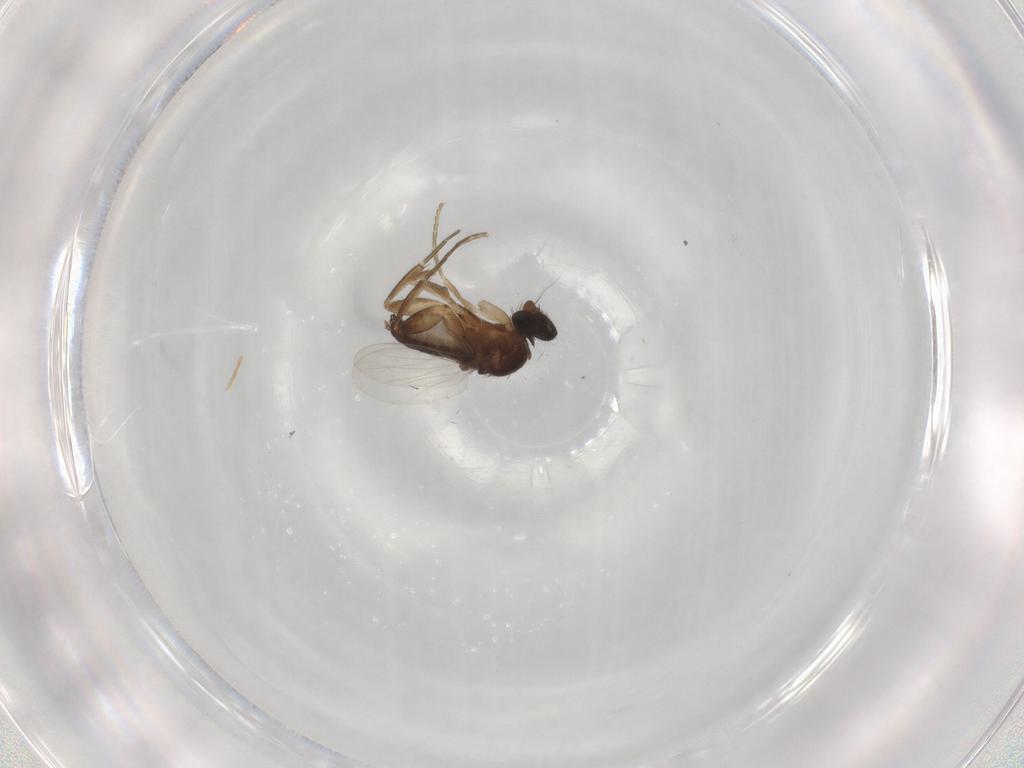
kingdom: Animalia
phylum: Arthropoda
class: Insecta
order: Diptera
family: Phoridae
